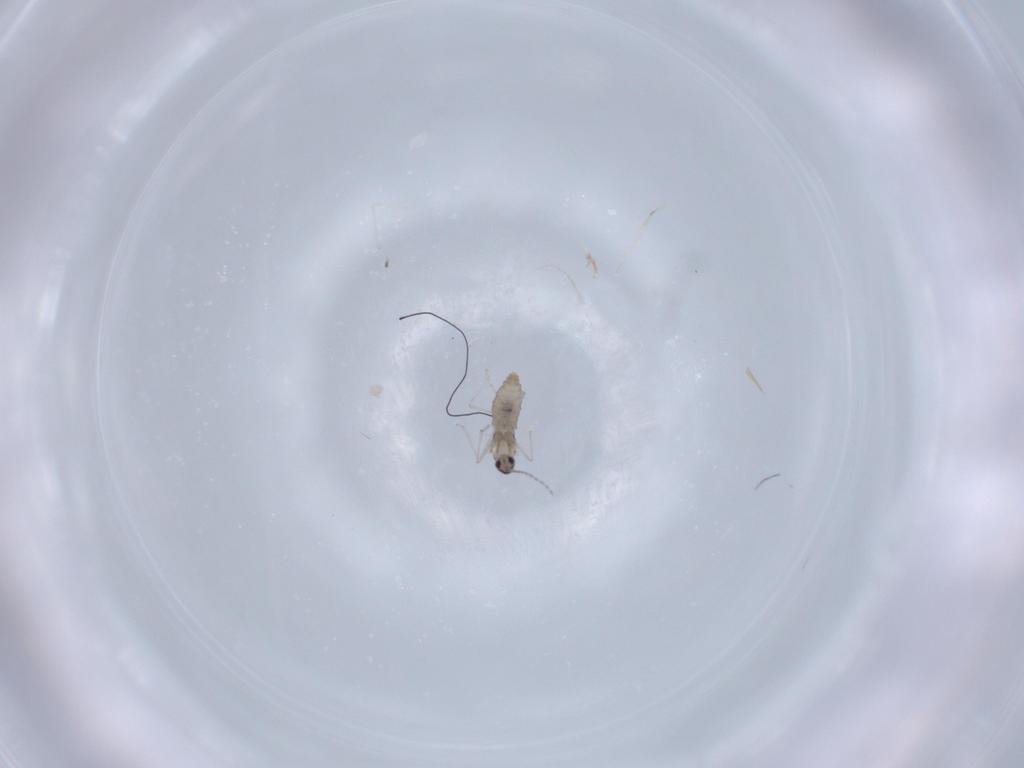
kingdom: Animalia
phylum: Arthropoda
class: Insecta
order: Diptera
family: Cecidomyiidae
